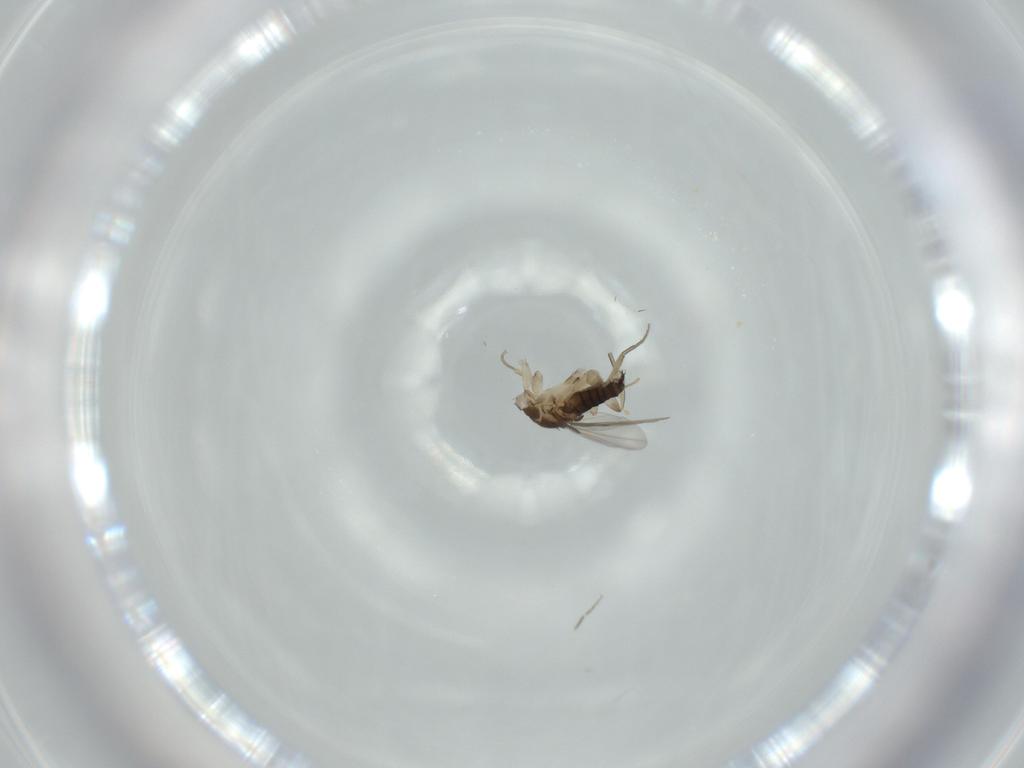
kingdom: Animalia
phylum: Arthropoda
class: Insecta
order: Diptera
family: Phoridae
